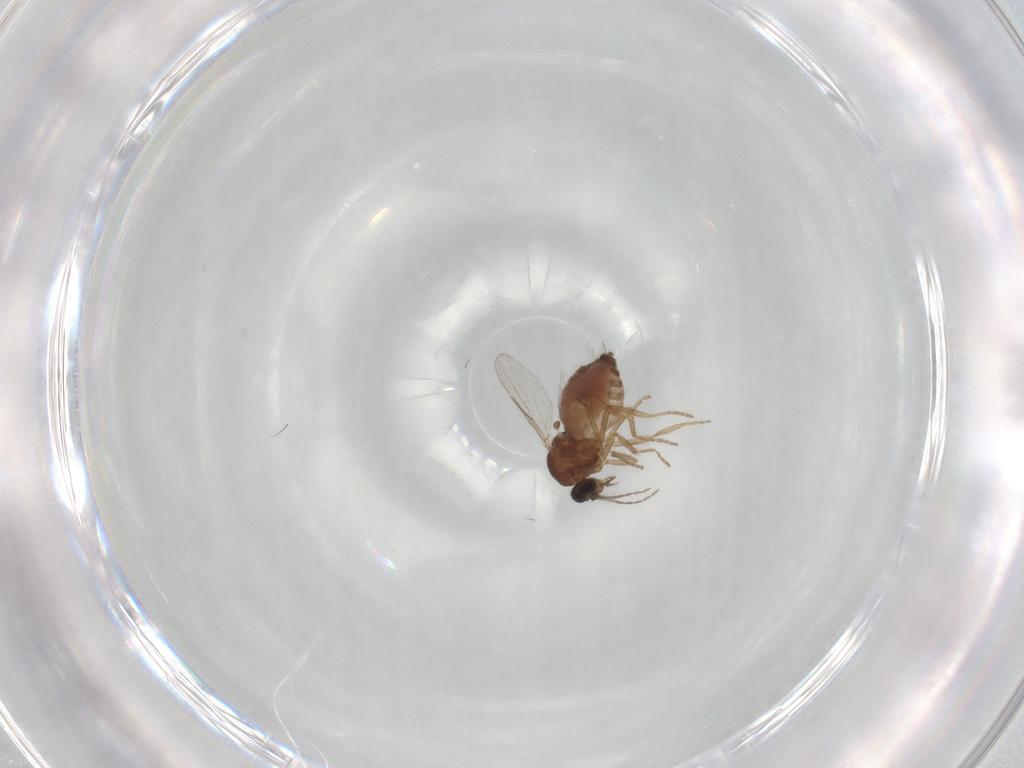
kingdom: Animalia
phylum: Arthropoda
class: Insecta
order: Diptera
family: Ceratopogonidae
